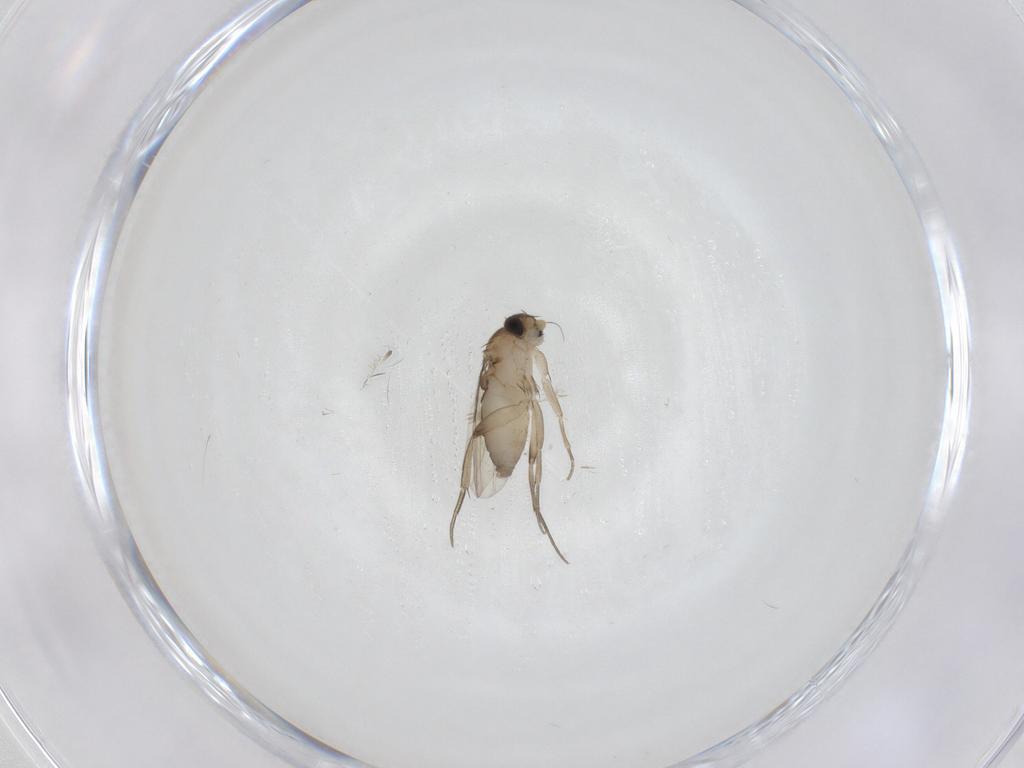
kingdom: Animalia
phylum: Arthropoda
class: Insecta
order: Diptera
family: Phoridae
